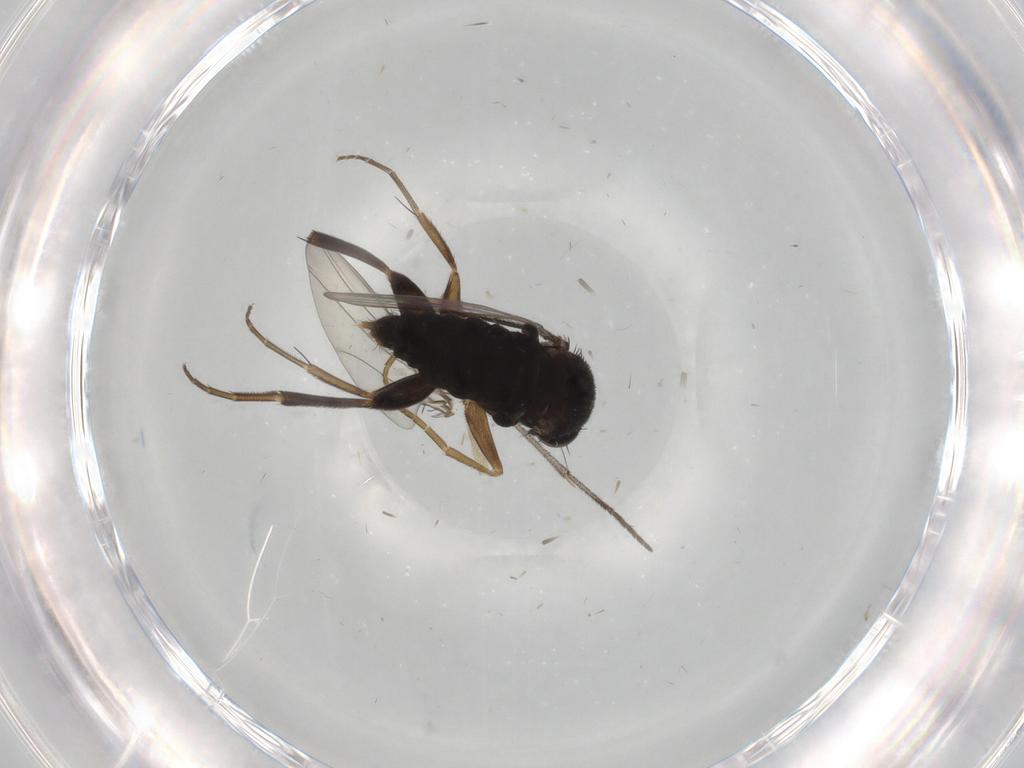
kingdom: Animalia
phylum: Arthropoda
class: Insecta
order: Diptera
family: Phoridae
